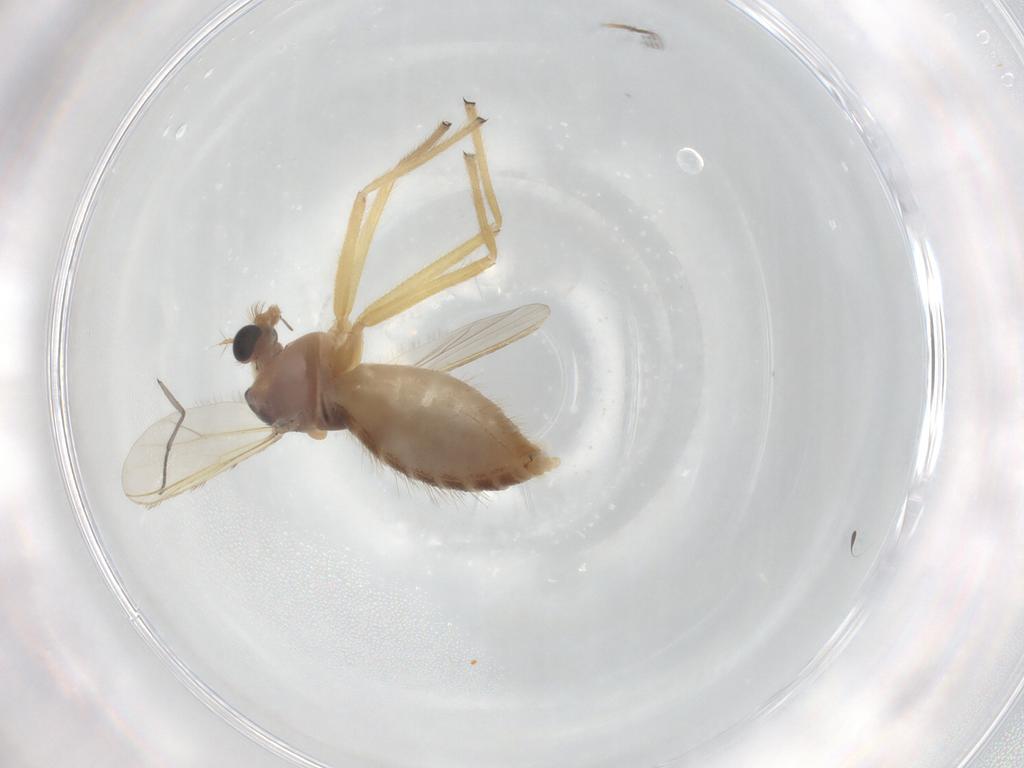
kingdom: Animalia
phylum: Arthropoda
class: Insecta
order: Diptera
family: Chironomidae
